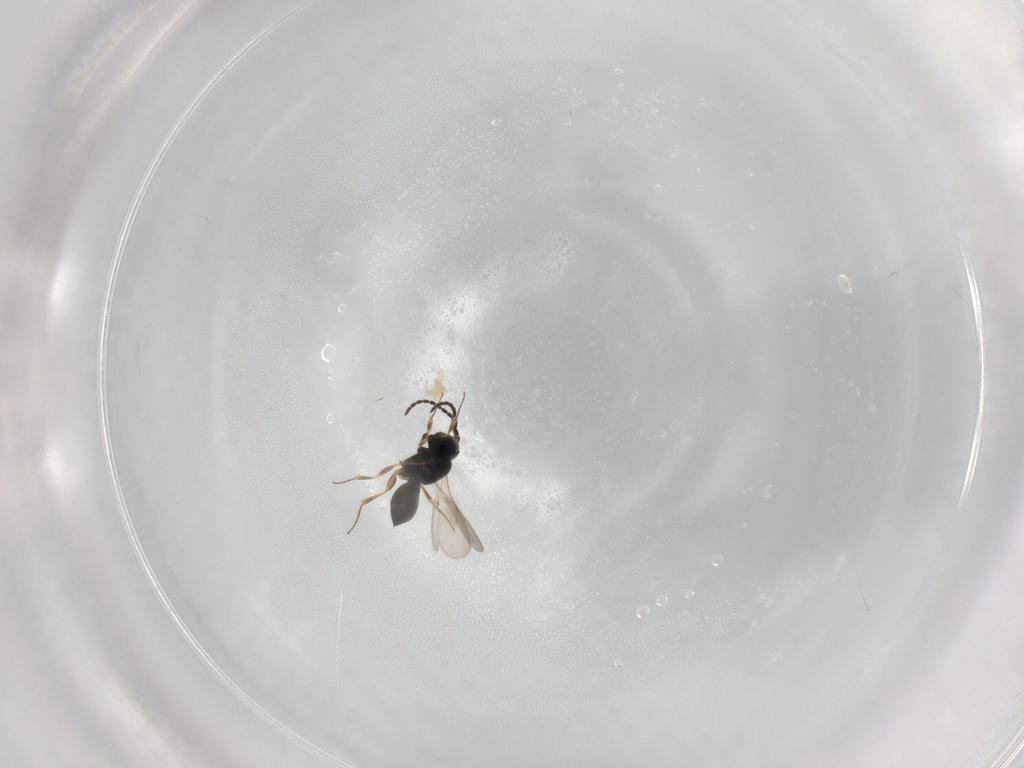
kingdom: Animalia
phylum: Arthropoda
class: Insecta
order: Hymenoptera
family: Scelionidae
